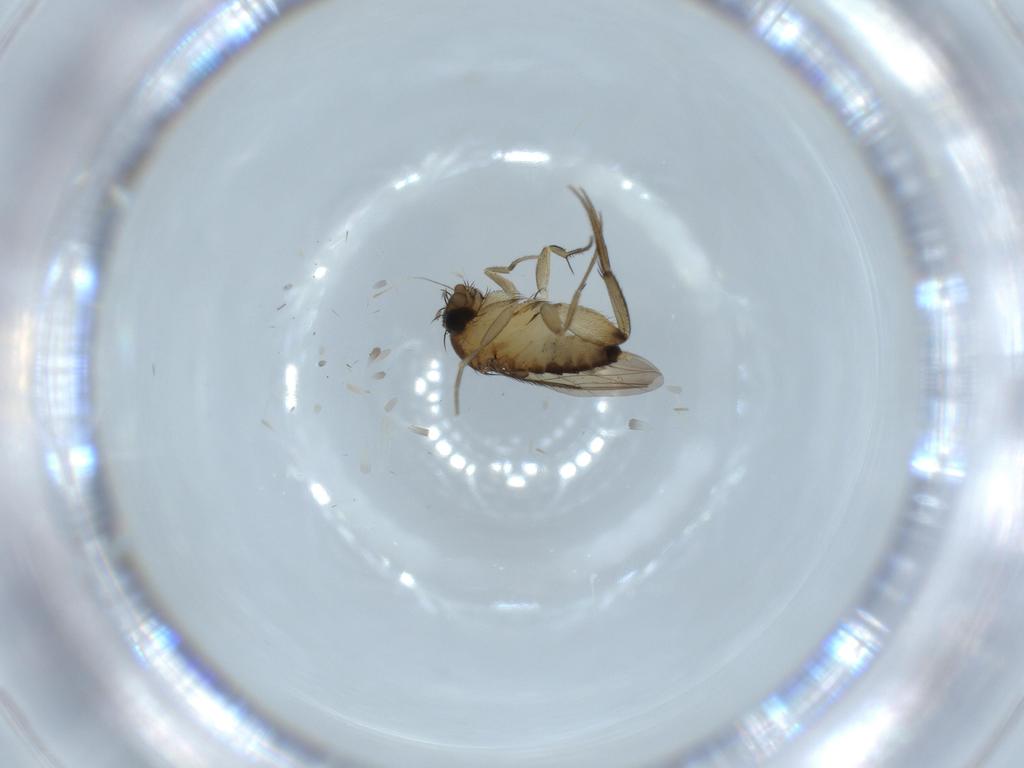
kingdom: Animalia
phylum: Arthropoda
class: Insecta
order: Diptera
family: Phoridae
